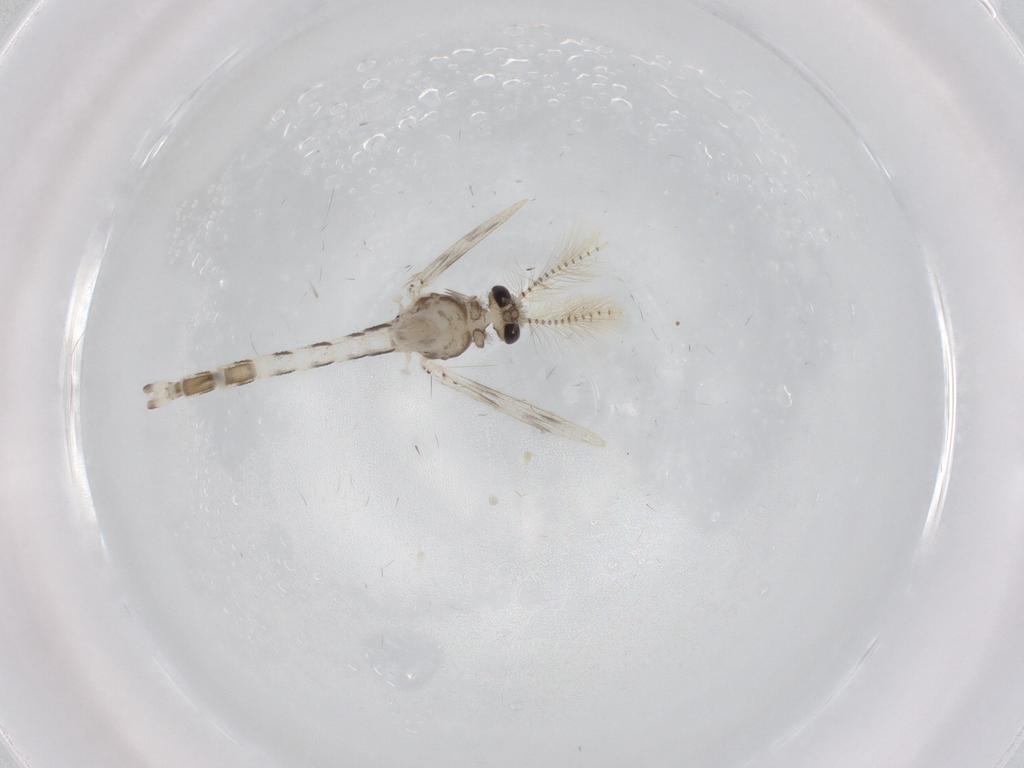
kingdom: Animalia
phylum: Arthropoda
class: Insecta
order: Diptera
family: Corethrellidae
